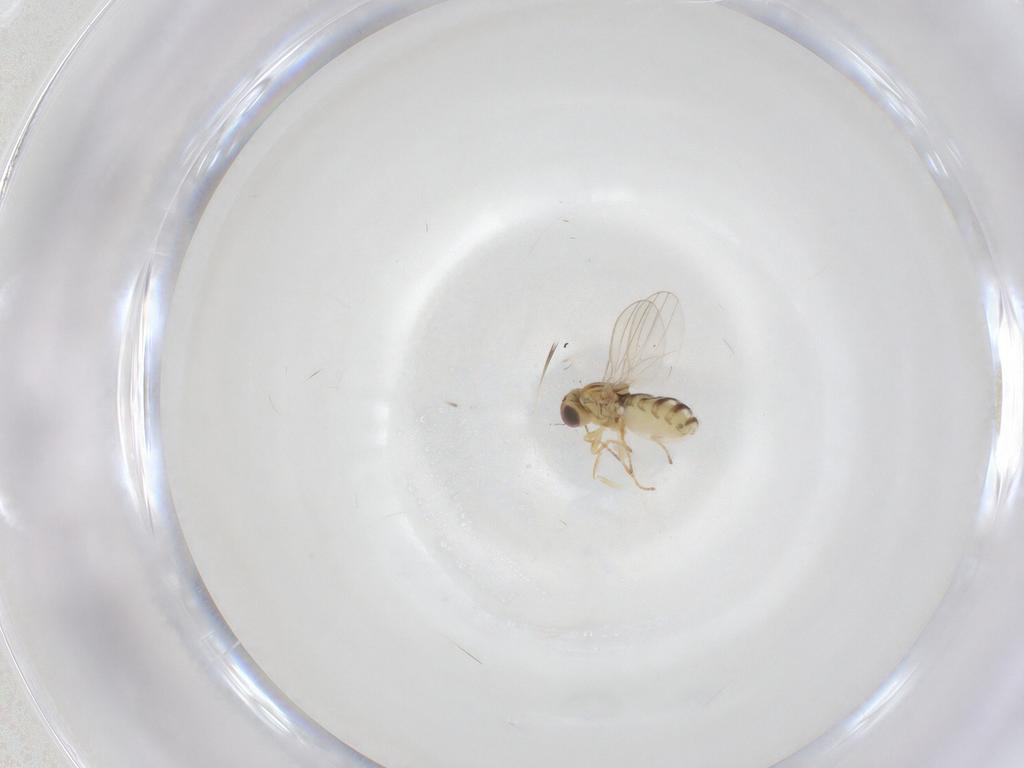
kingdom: Animalia
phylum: Arthropoda
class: Insecta
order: Diptera
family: Chyromyidae
